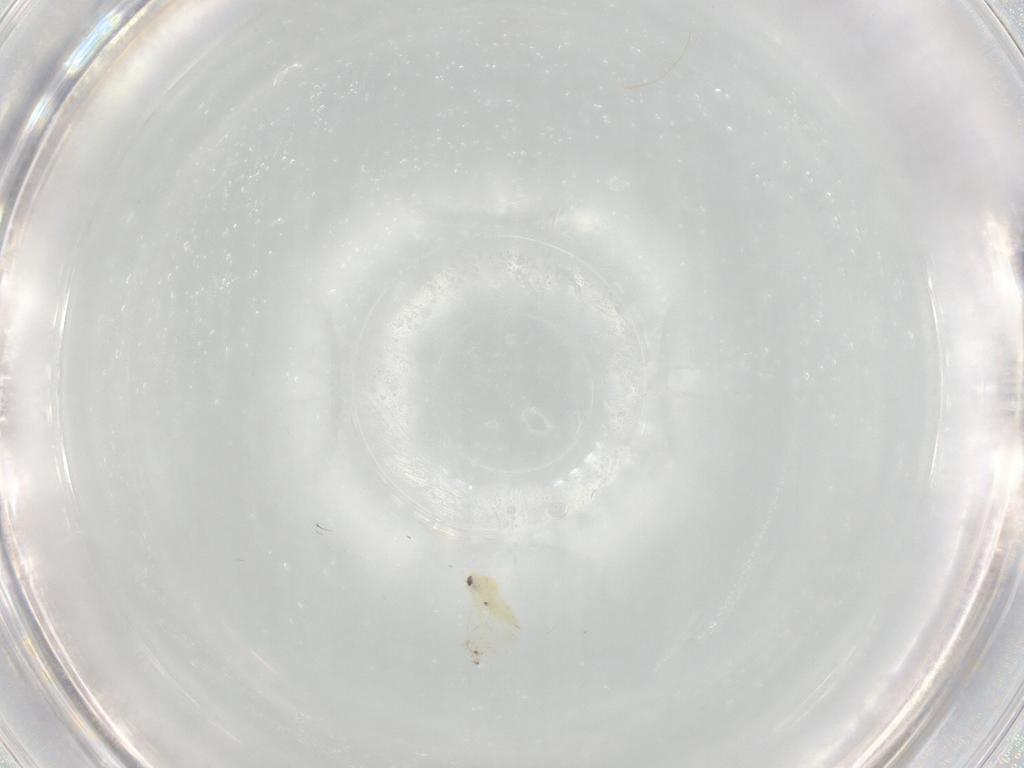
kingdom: Animalia
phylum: Arthropoda
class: Insecta
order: Hemiptera
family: Aleyrodidae
